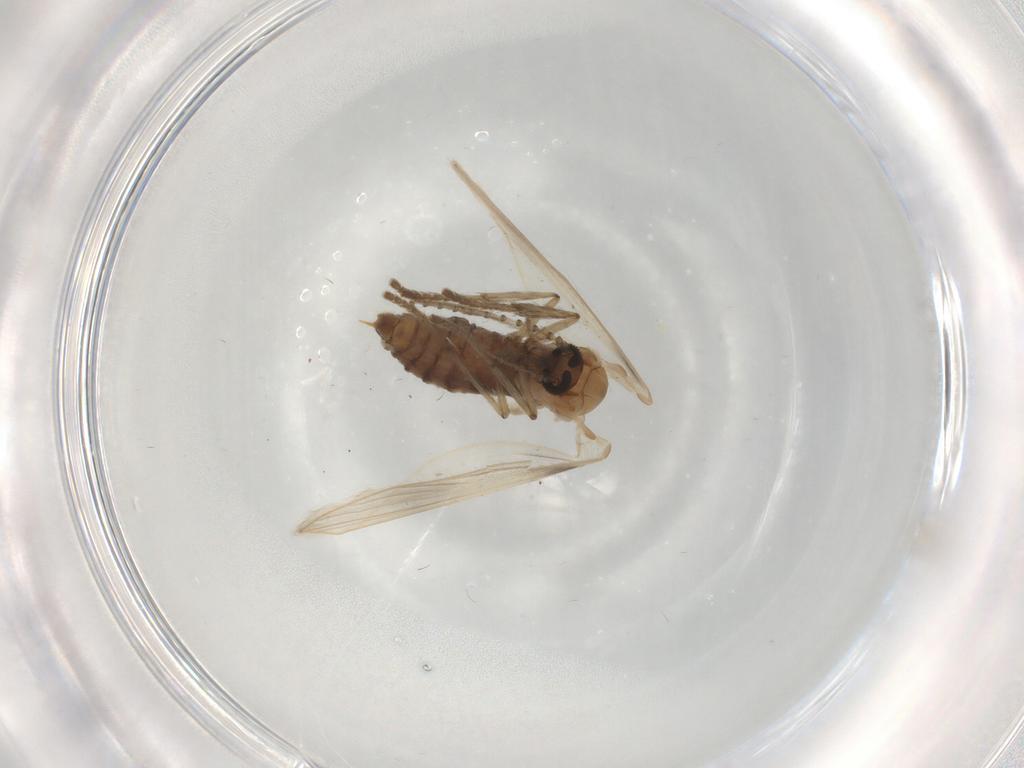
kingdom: Animalia
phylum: Arthropoda
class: Insecta
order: Diptera
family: Psychodidae
